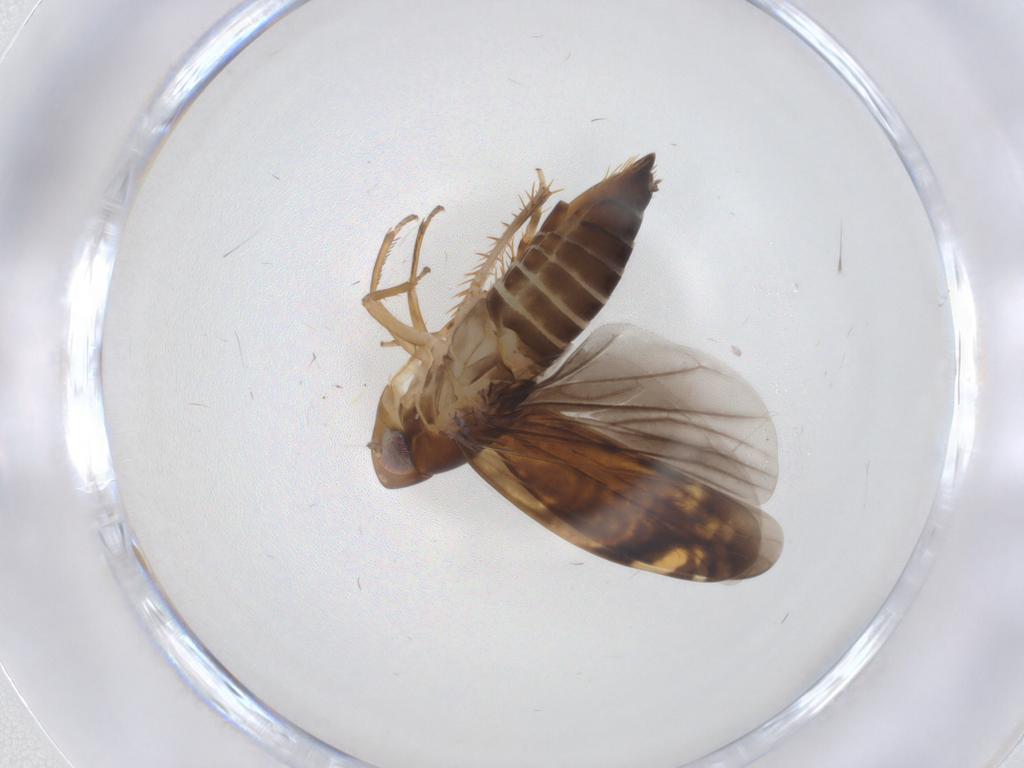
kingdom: Animalia
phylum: Arthropoda
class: Insecta
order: Hemiptera
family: Cicadellidae
